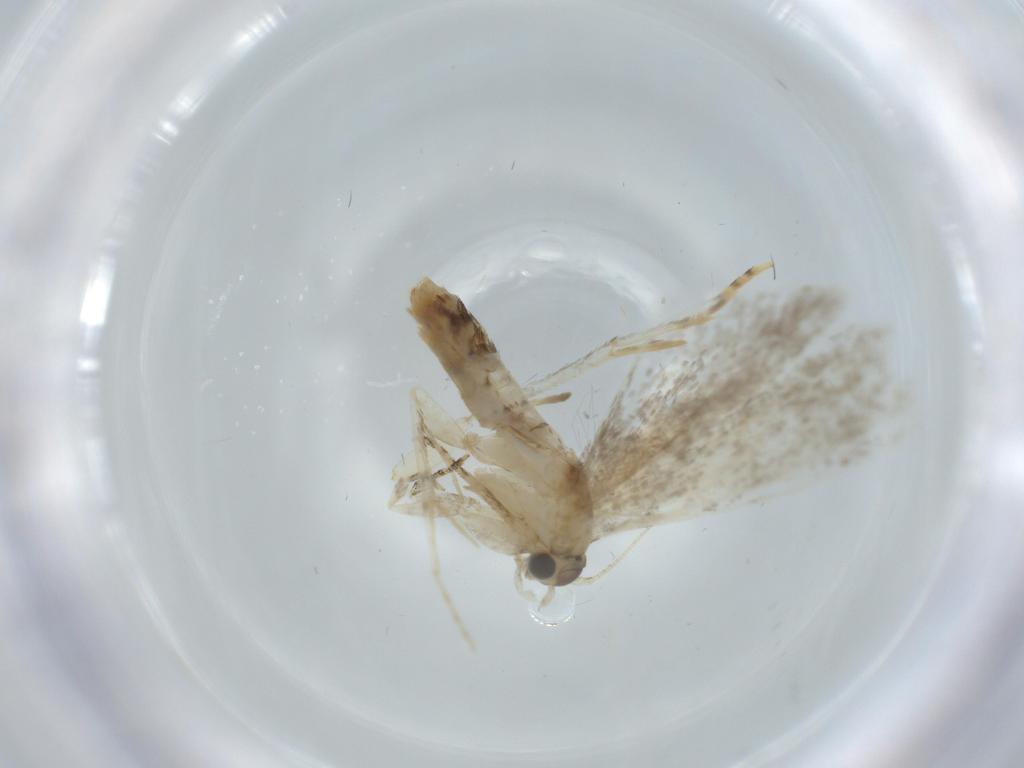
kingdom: Animalia
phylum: Arthropoda
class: Insecta
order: Lepidoptera
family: Tineidae
